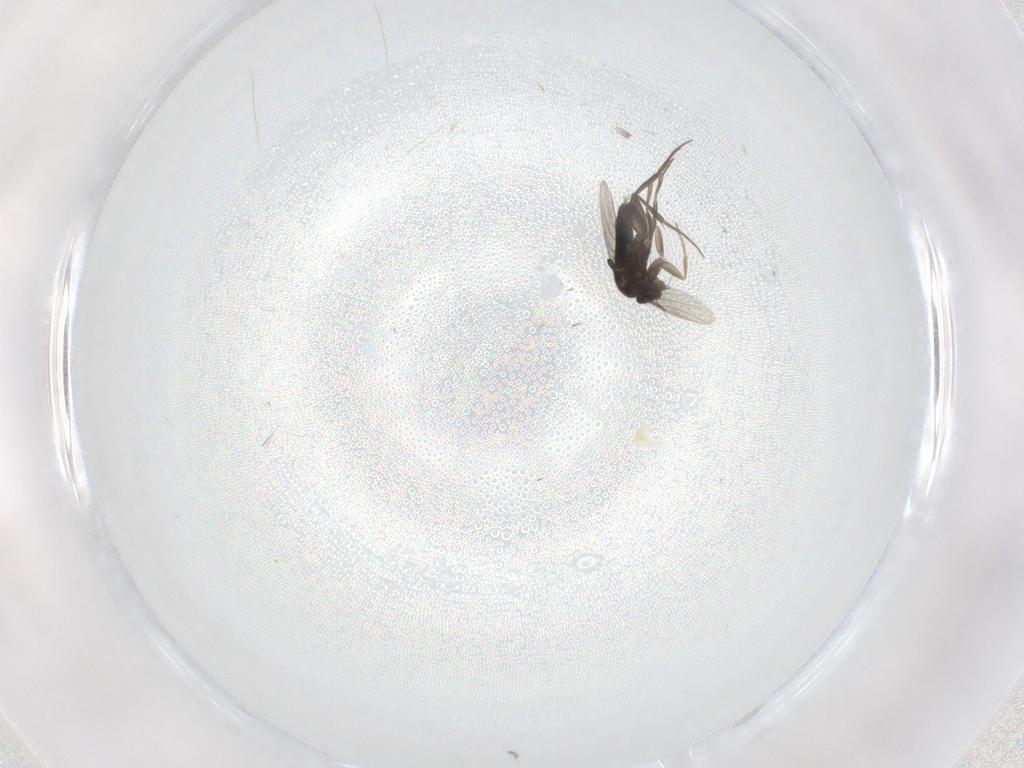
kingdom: Animalia
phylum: Arthropoda
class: Insecta
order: Diptera
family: Phoridae
